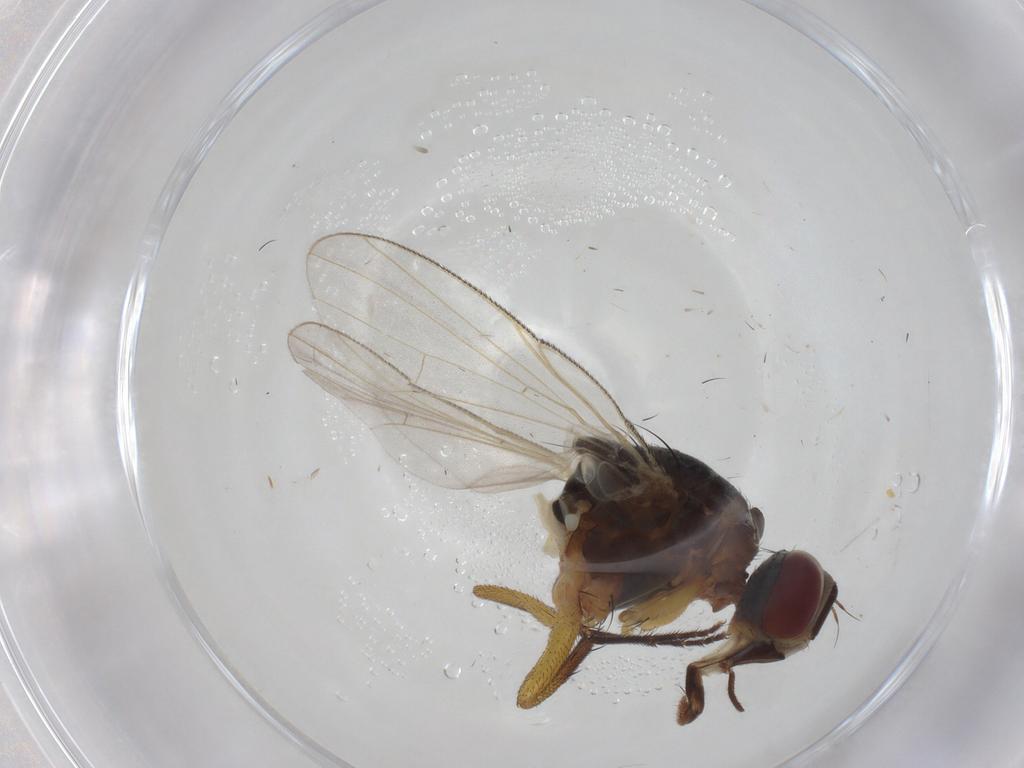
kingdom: Animalia
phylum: Arthropoda
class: Insecta
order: Diptera
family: Muscidae
